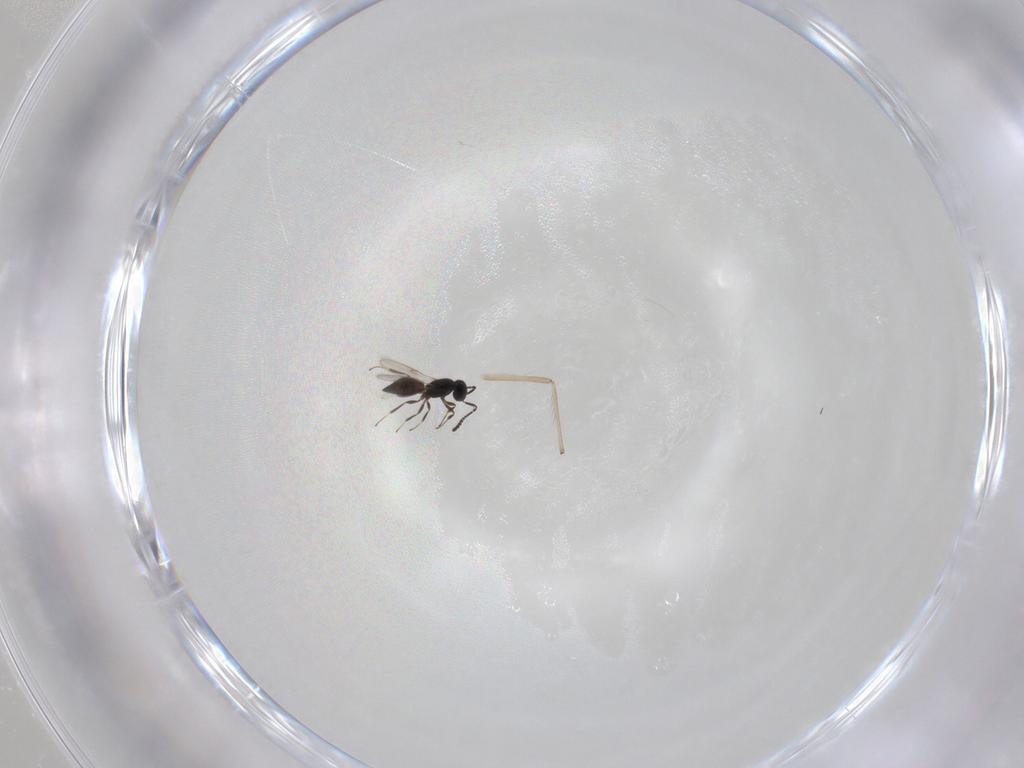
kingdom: Animalia
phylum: Arthropoda
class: Insecta
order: Hymenoptera
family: Scelionidae
